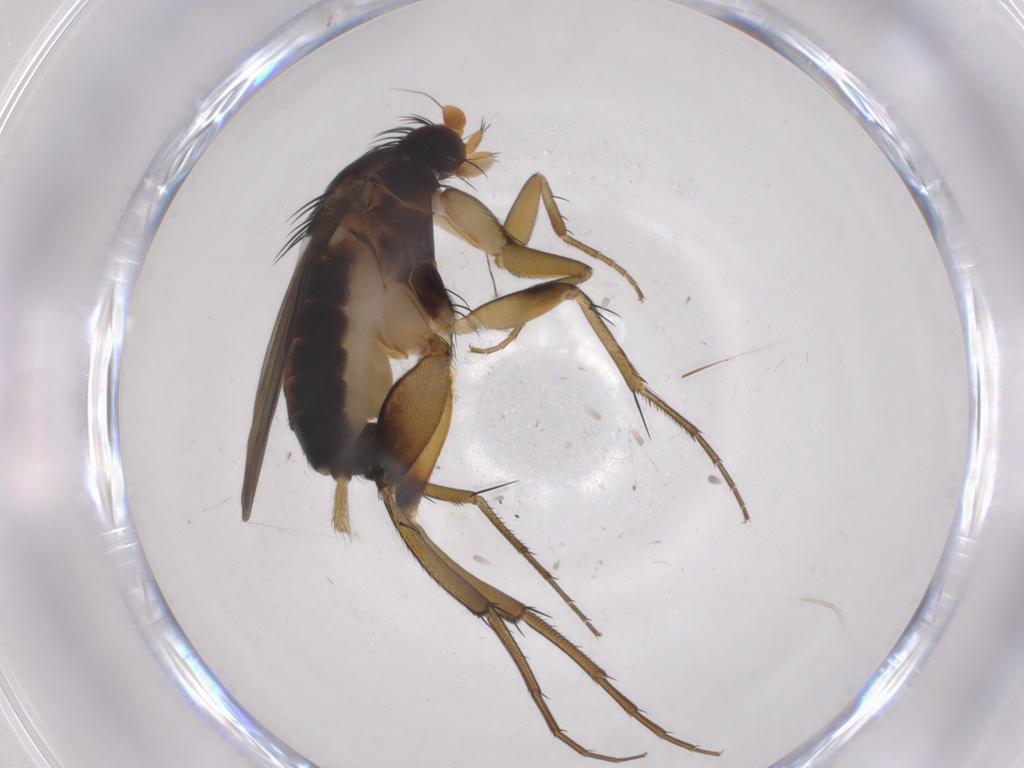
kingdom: Animalia
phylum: Arthropoda
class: Insecta
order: Diptera
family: Phoridae
